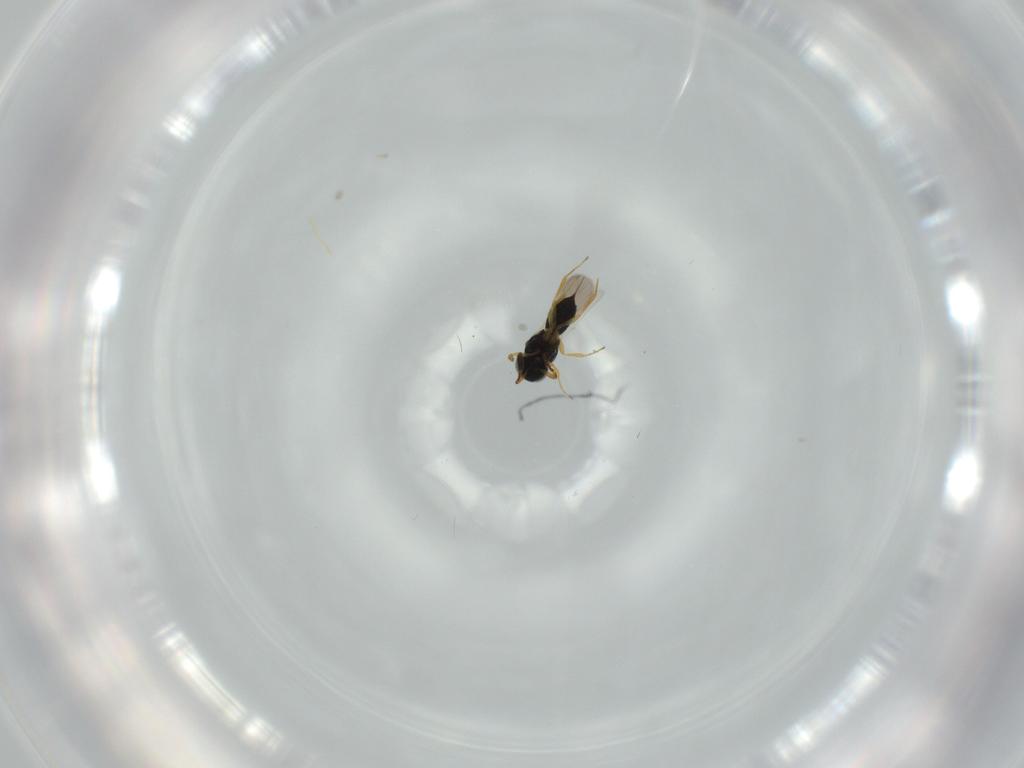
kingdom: Animalia
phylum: Arthropoda
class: Insecta
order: Hymenoptera
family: Scelionidae
